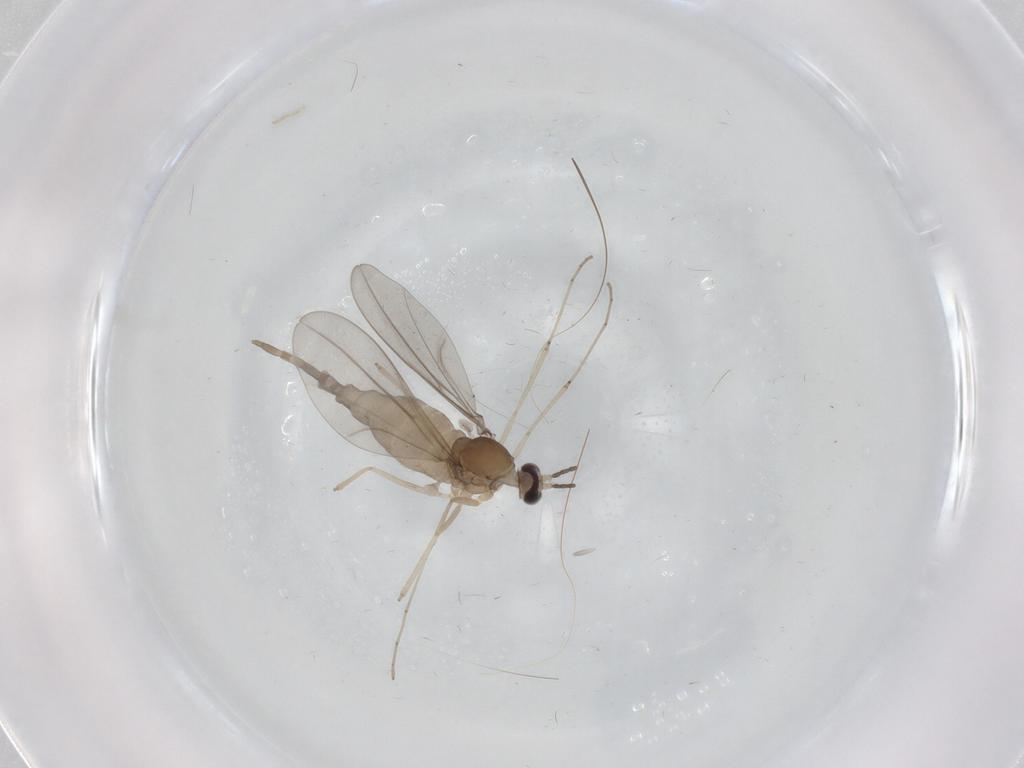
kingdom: Animalia
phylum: Arthropoda
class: Insecta
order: Diptera
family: Cecidomyiidae
